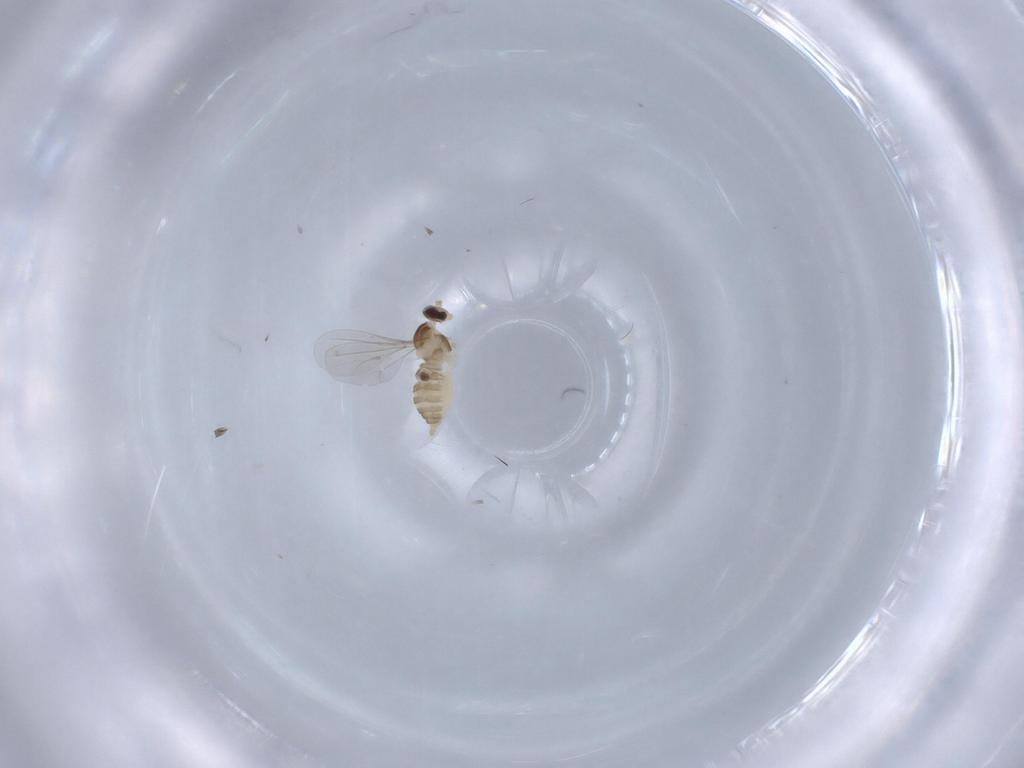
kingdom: Animalia
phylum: Arthropoda
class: Insecta
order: Diptera
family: Cecidomyiidae
